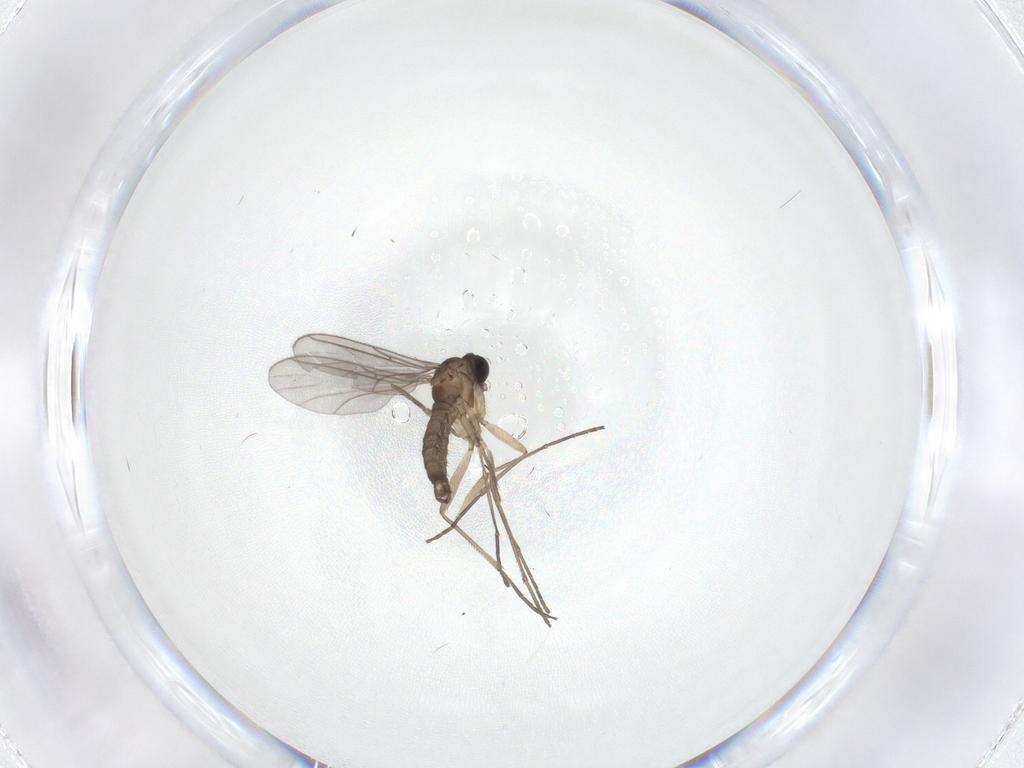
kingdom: Animalia
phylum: Arthropoda
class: Insecta
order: Diptera
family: Sciaridae
